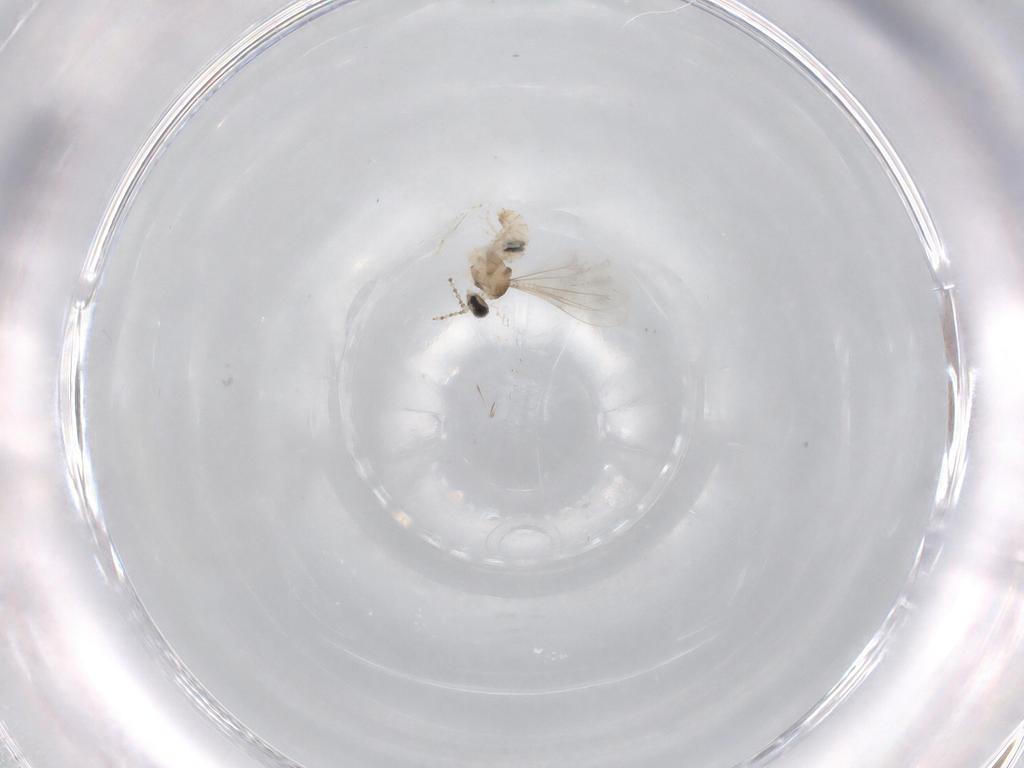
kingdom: Animalia
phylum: Arthropoda
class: Insecta
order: Diptera
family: Cecidomyiidae
